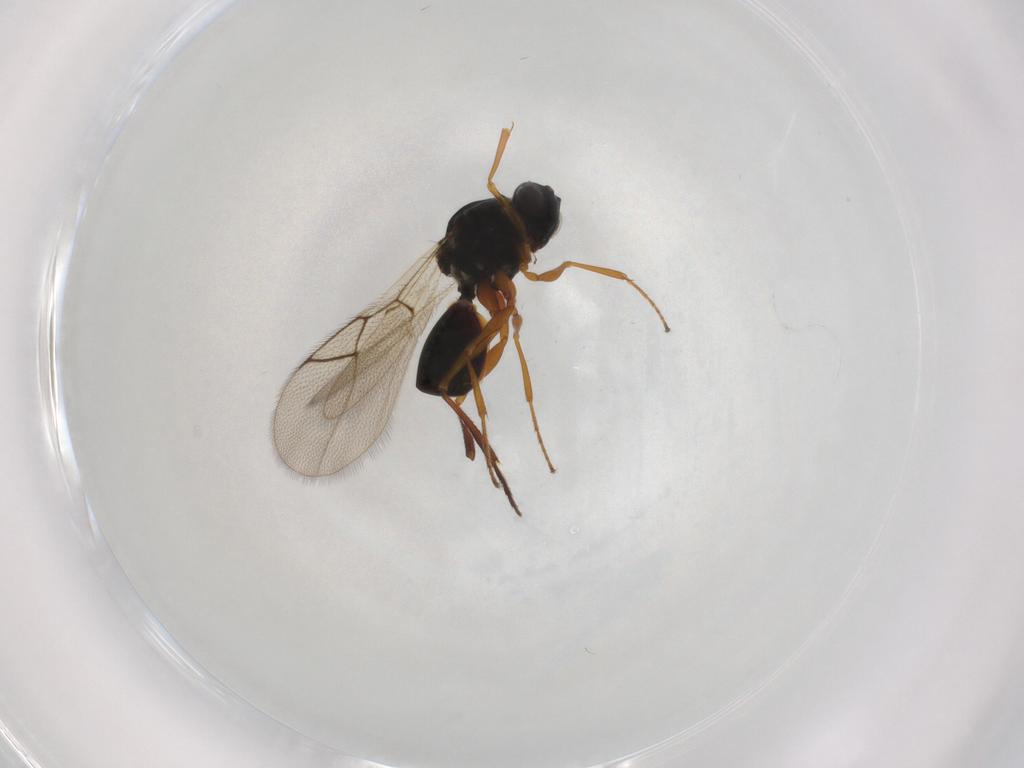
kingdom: Animalia
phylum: Arthropoda
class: Insecta
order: Hymenoptera
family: Figitidae
